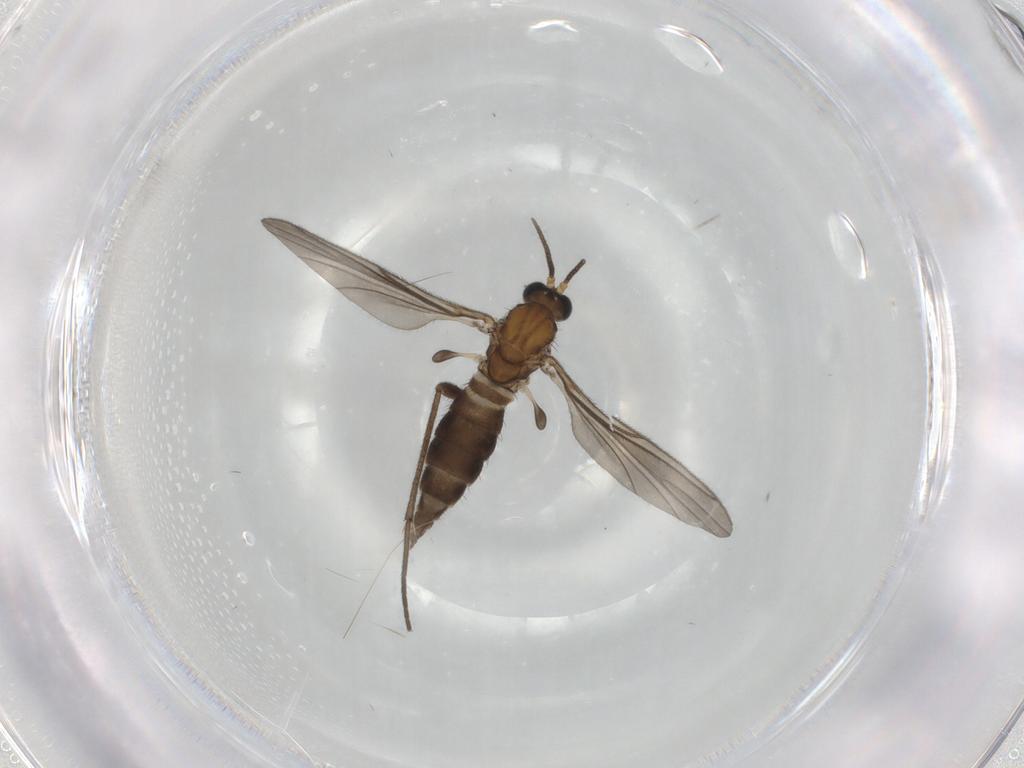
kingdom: Animalia
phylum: Arthropoda
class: Insecta
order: Diptera
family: Sciaridae
